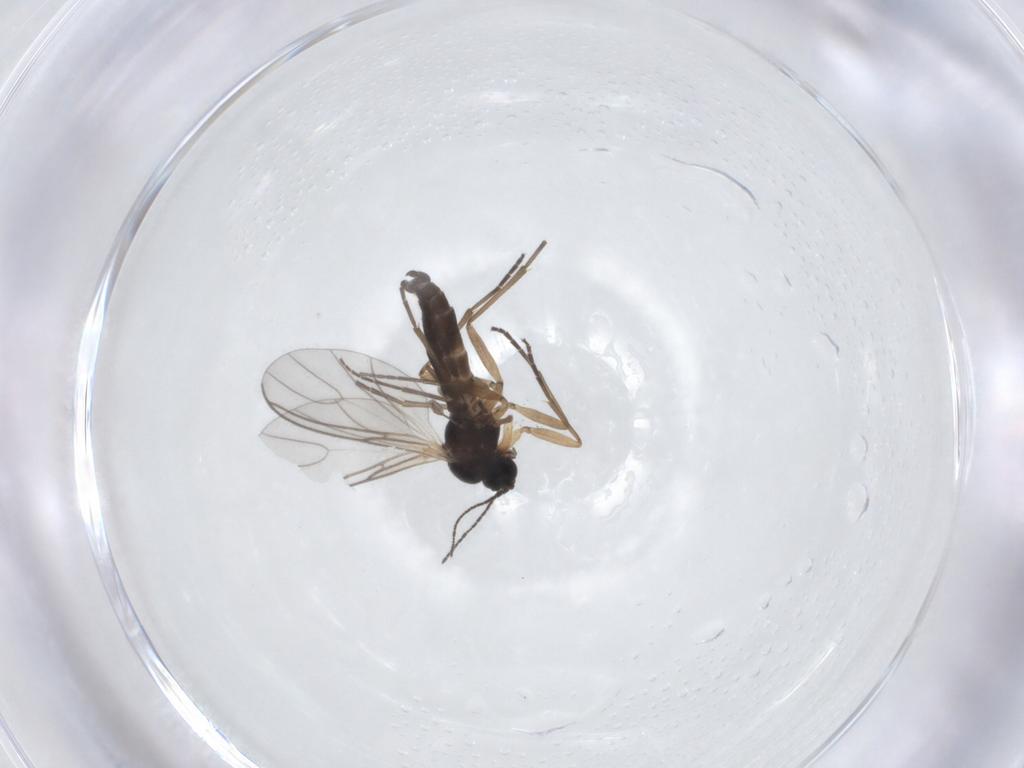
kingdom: Animalia
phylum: Arthropoda
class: Insecta
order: Diptera
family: Sciaridae
